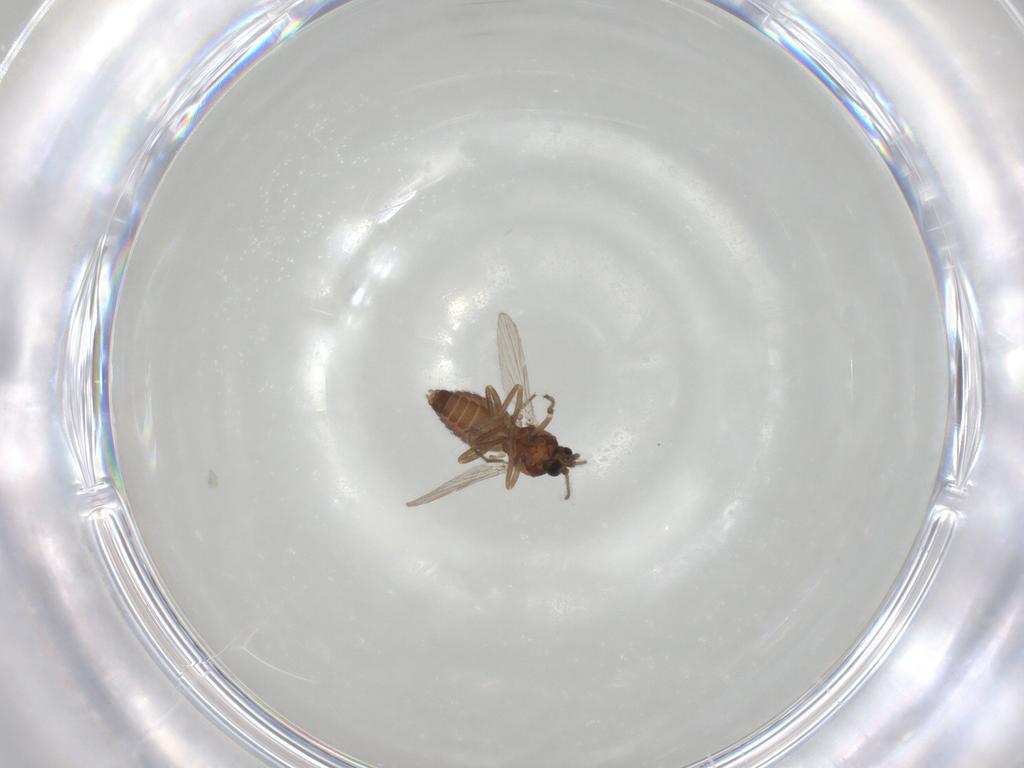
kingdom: Animalia
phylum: Arthropoda
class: Insecta
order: Diptera
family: Ceratopogonidae
